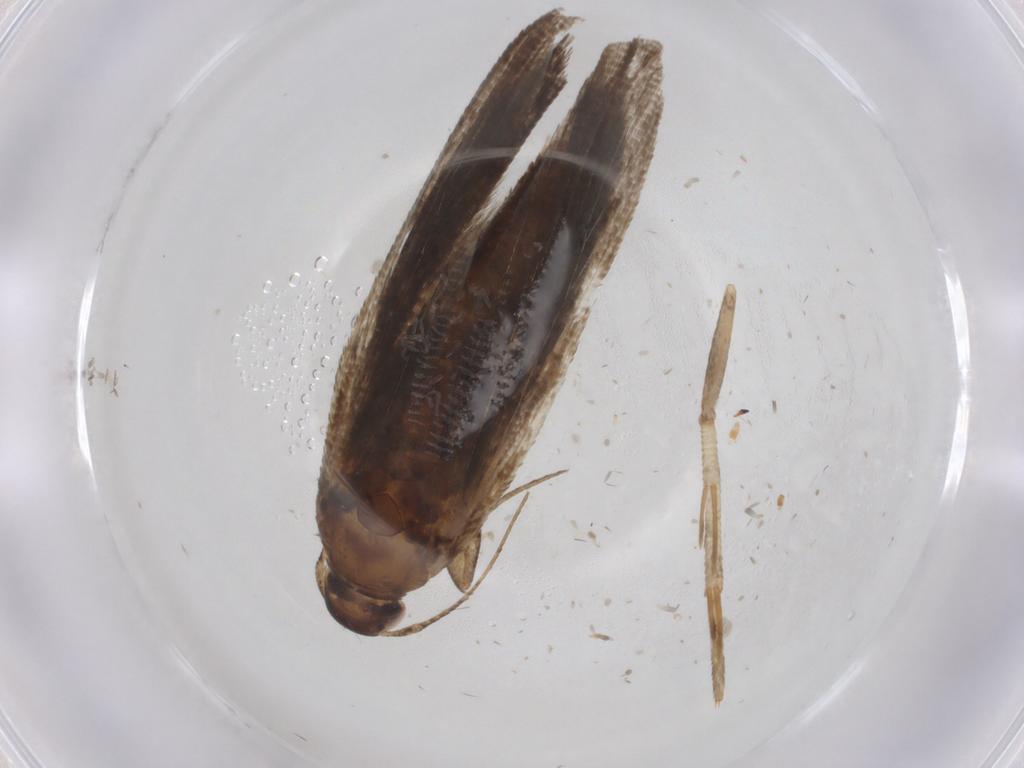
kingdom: Animalia
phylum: Arthropoda
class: Insecta
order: Lepidoptera
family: Gelechiidae
